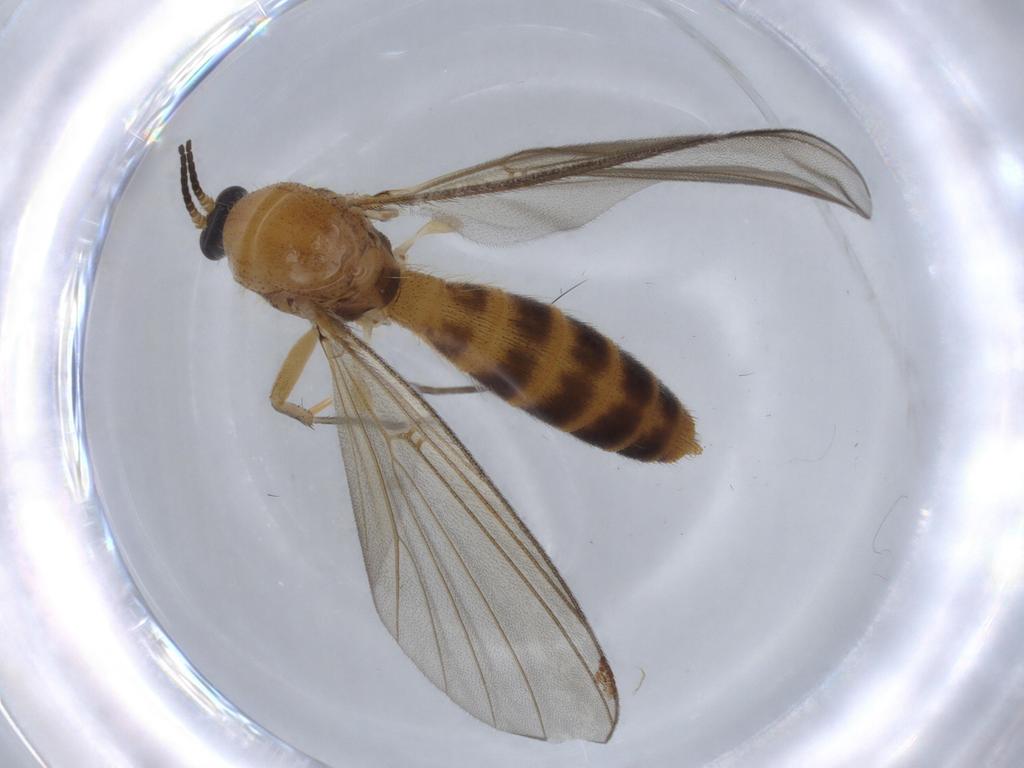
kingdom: Animalia
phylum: Arthropoda
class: Insecta
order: Diptera
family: Phoridae
